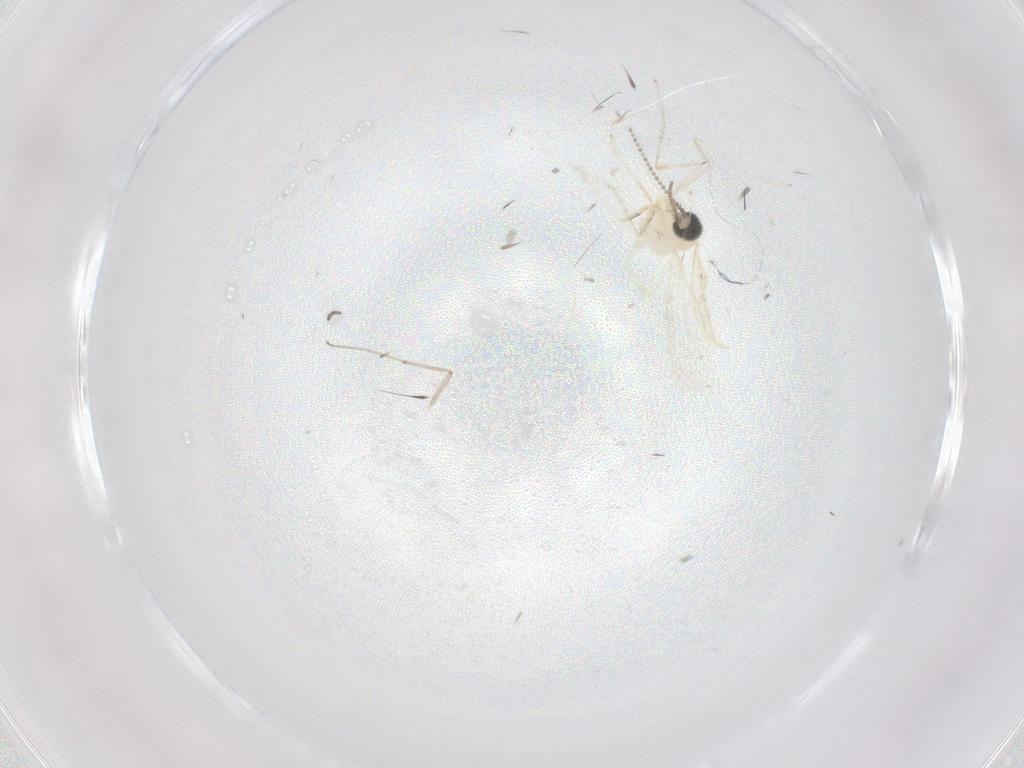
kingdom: Animalia
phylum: Arthropoda
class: Insecta
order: Diptera
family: Cecidomyiidae
